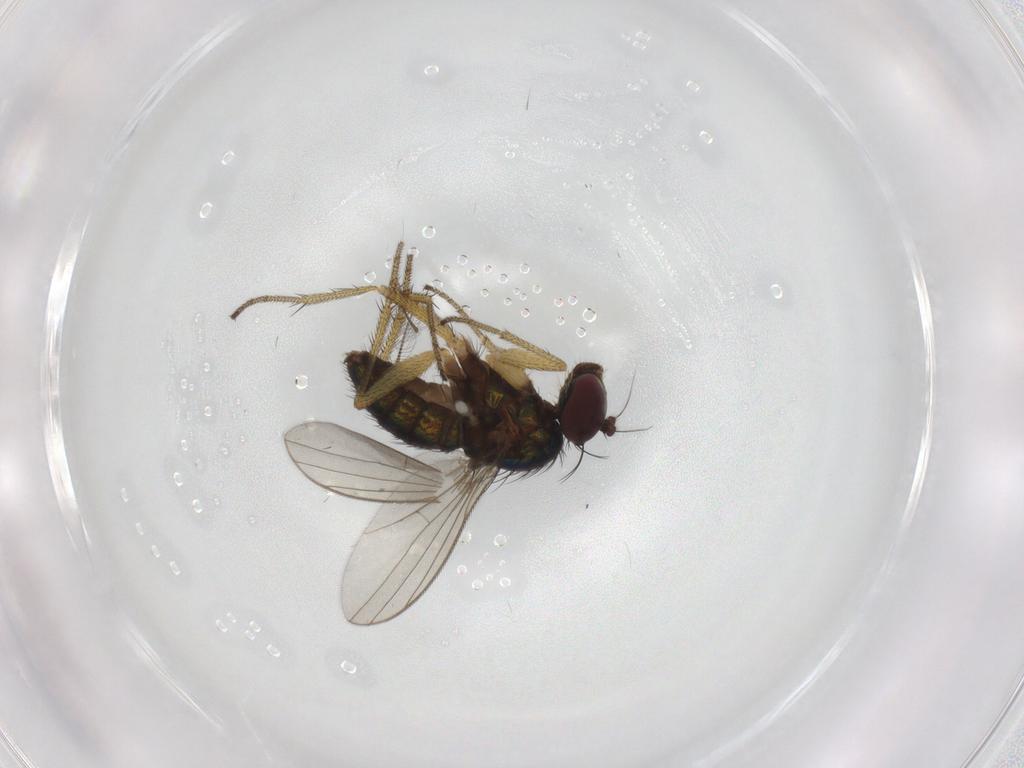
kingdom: Animalia
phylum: Arthropoda
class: Insecta
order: Diptera
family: Chironomidae
